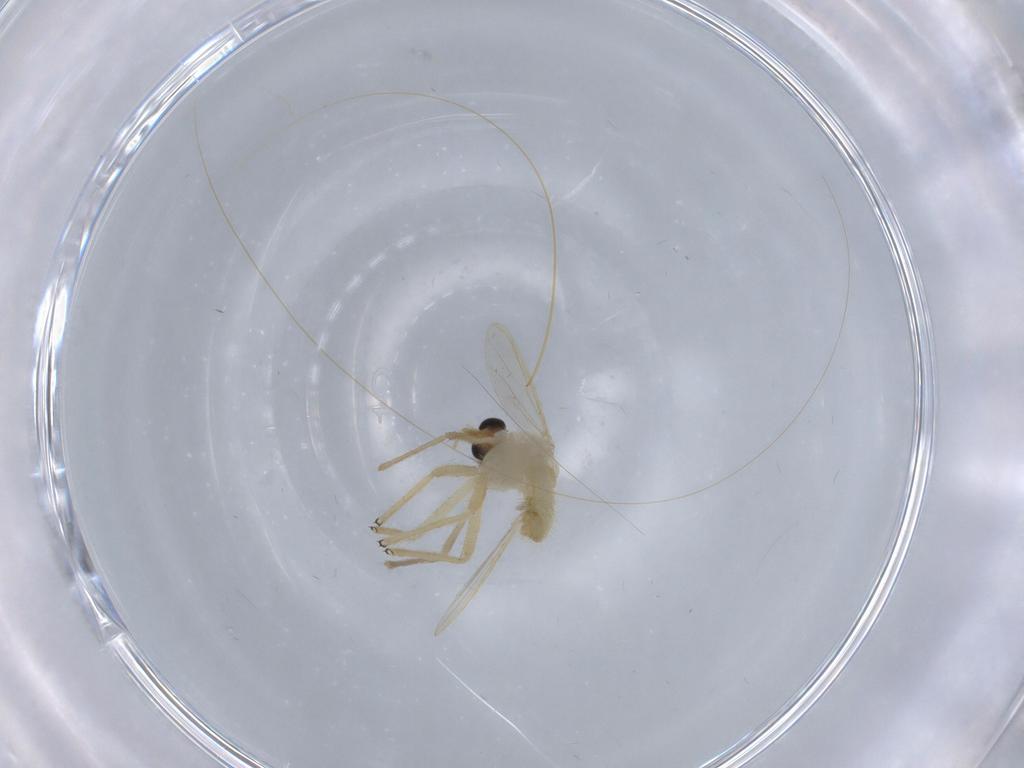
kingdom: Animalia
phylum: Arthropoda
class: Insecta
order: Diptera
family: Chironomidae
